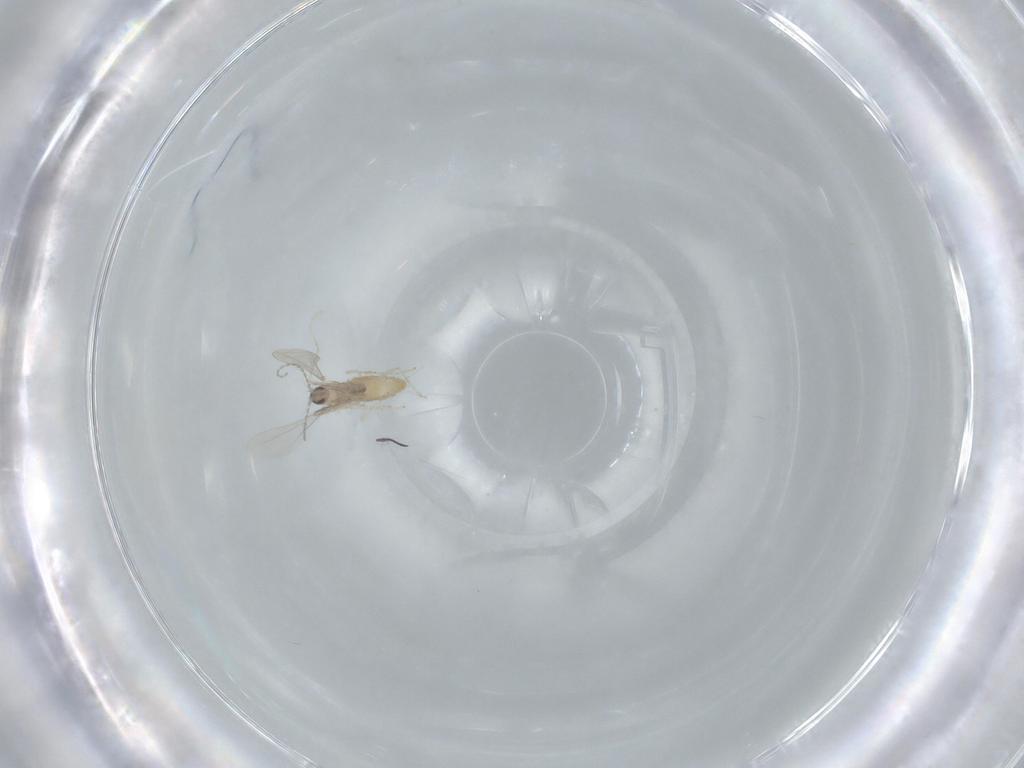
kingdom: Animalia
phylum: Arthropoda
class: Insecta
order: Diptera
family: Cecidomyiidae
